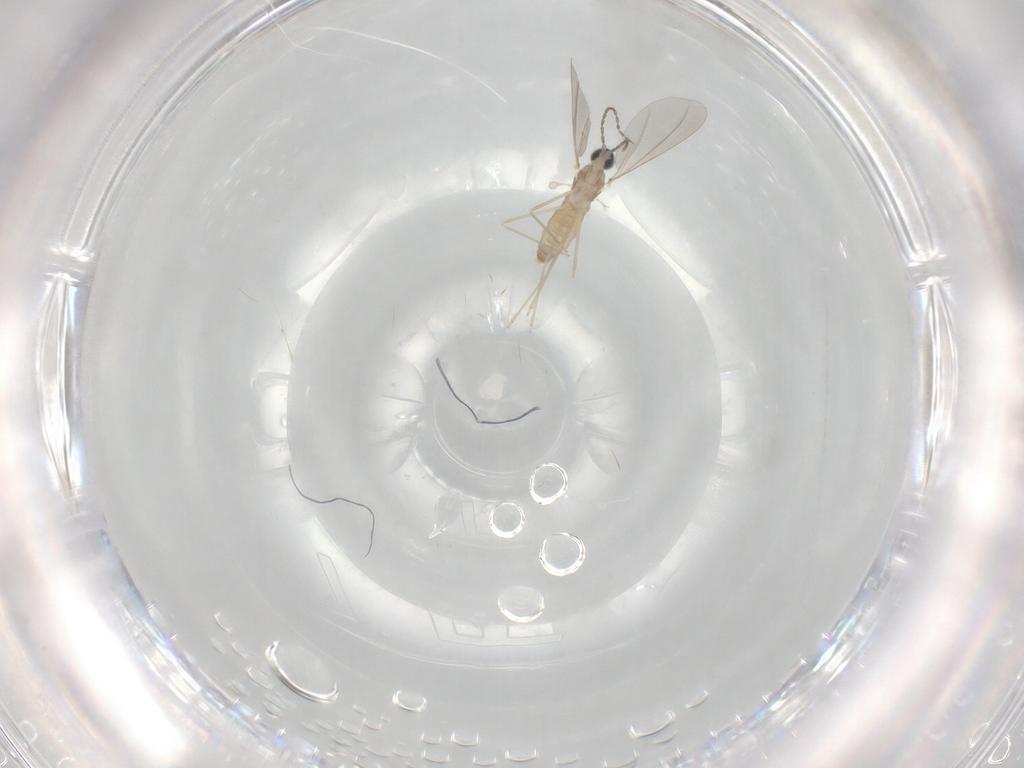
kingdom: Animalia
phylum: Arthropoda
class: Insecta
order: Diptera
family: Cecidomyiidae
